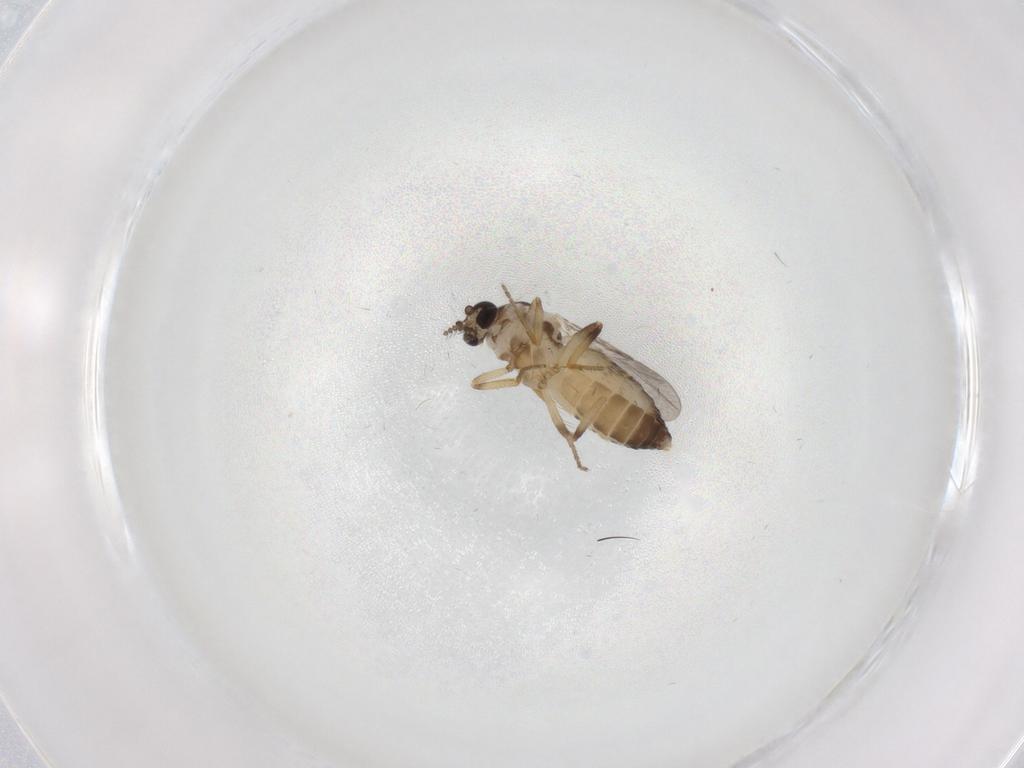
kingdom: Animalia
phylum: Arthropoda
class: Insecta
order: Diptera
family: Ceratopogonidae
